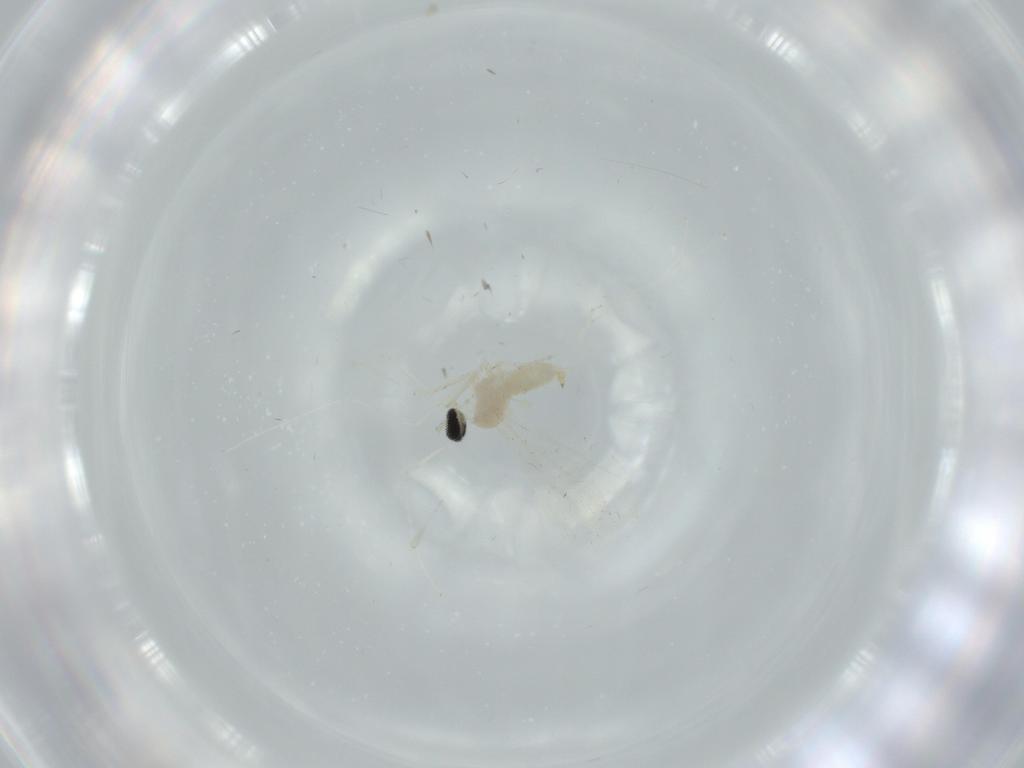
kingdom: Animalia
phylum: Arthropoda
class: Insecta
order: Diptera
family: Cecidomyiidae
